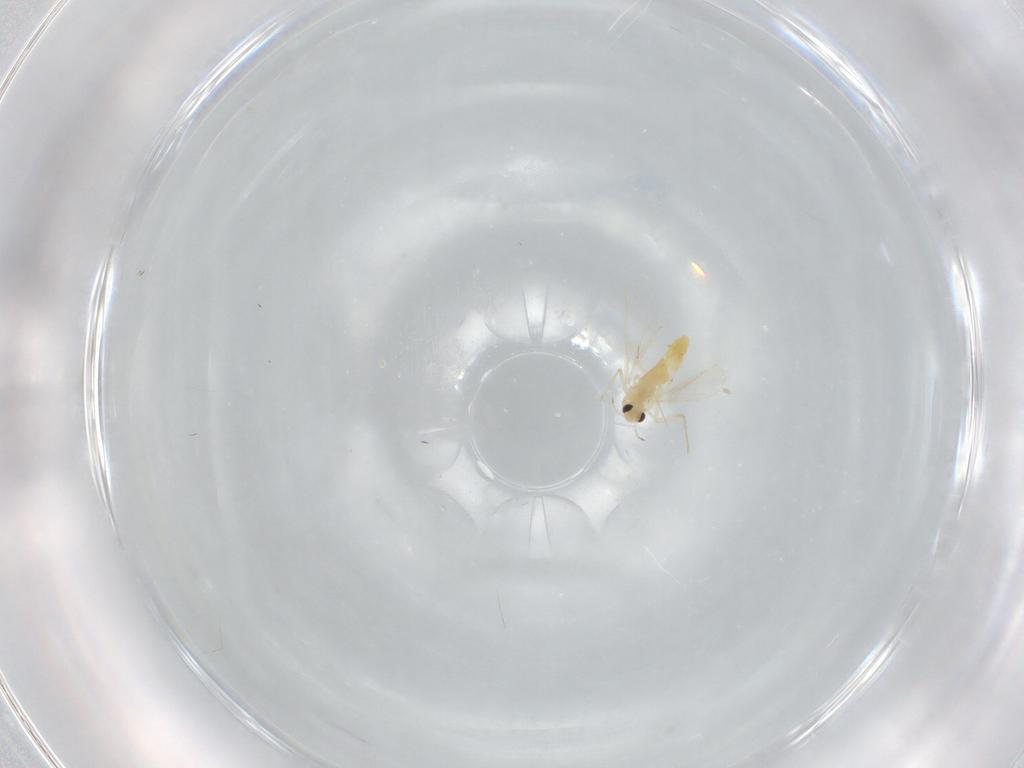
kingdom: Animalia
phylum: Arthropoda
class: Insecta
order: Diptera
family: Chironomidae
